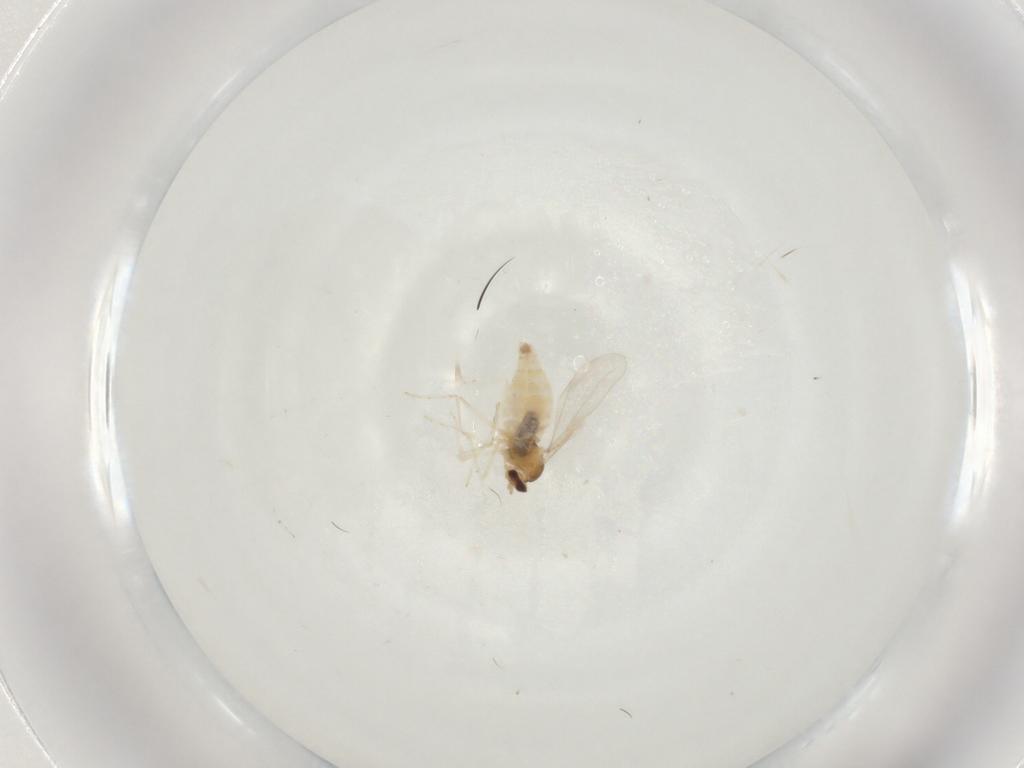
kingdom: Animalia
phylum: Arthropoda
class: Insecta
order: Diptera
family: Cecidomyiidae
